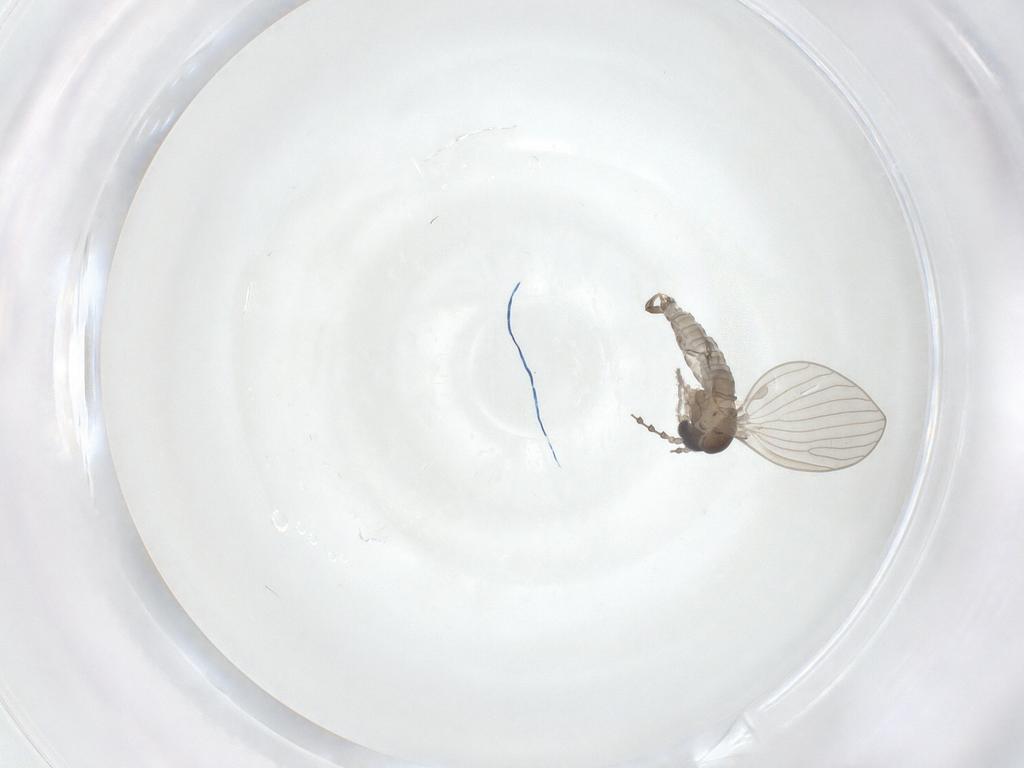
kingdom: Animalia
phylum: Arthropoda
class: Insecta
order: Diptera
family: Psychodidae
